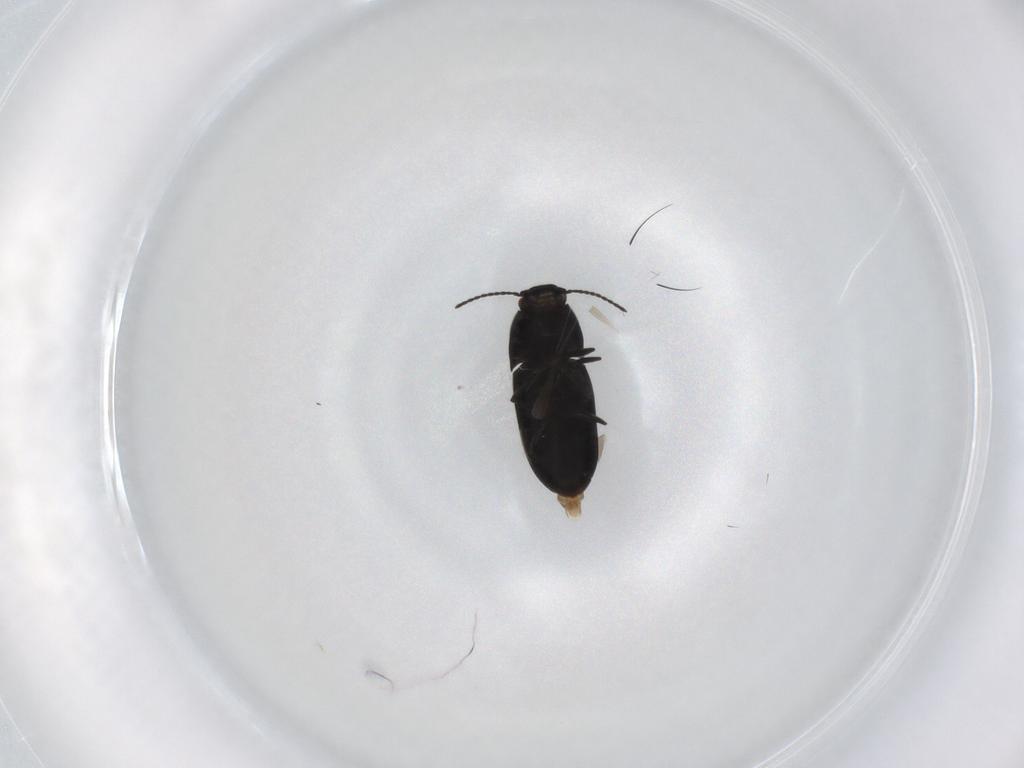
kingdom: Animalia
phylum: Arthropoda
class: Insecta
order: Coleoptera
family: Elateridae
